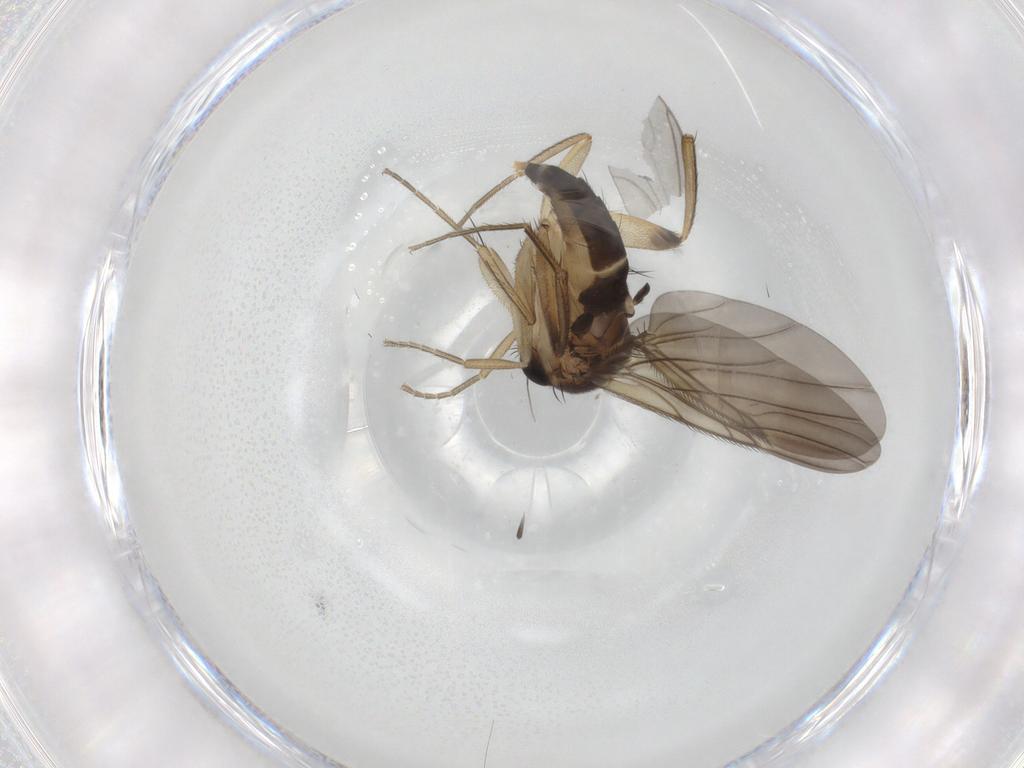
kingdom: Animalia
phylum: Arthropoda
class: Insecta
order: Diptera
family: Phoridae
